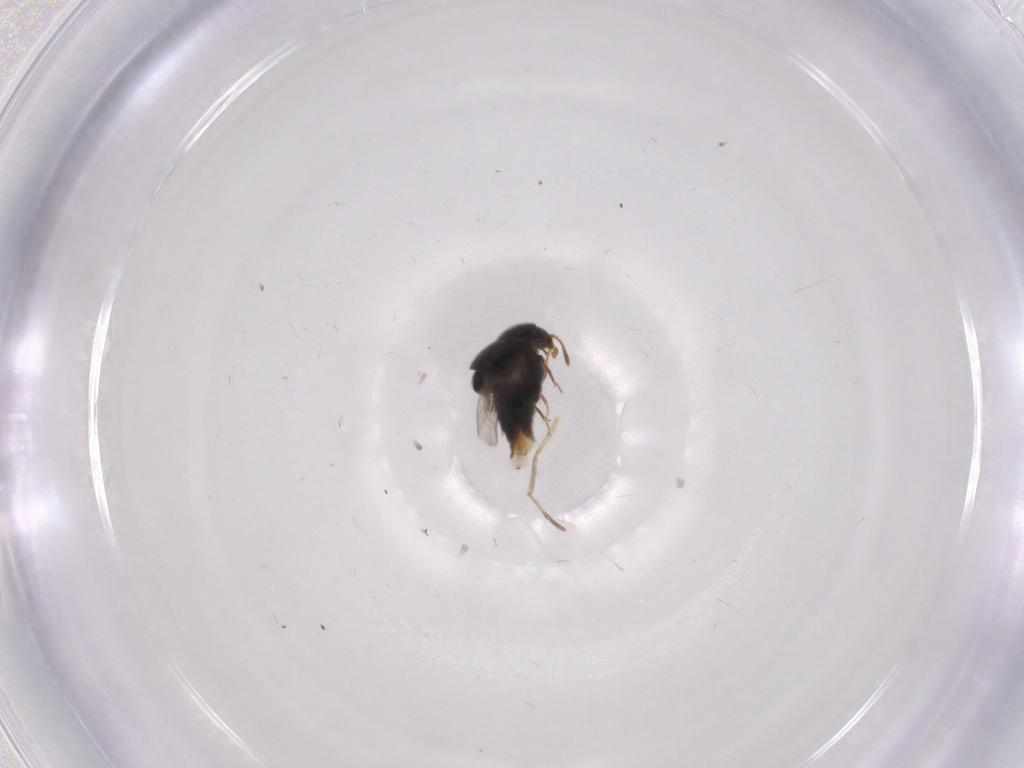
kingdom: Animalia
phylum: Arthropoda
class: Insecta
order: Coleoptera
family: Staphylinidae
